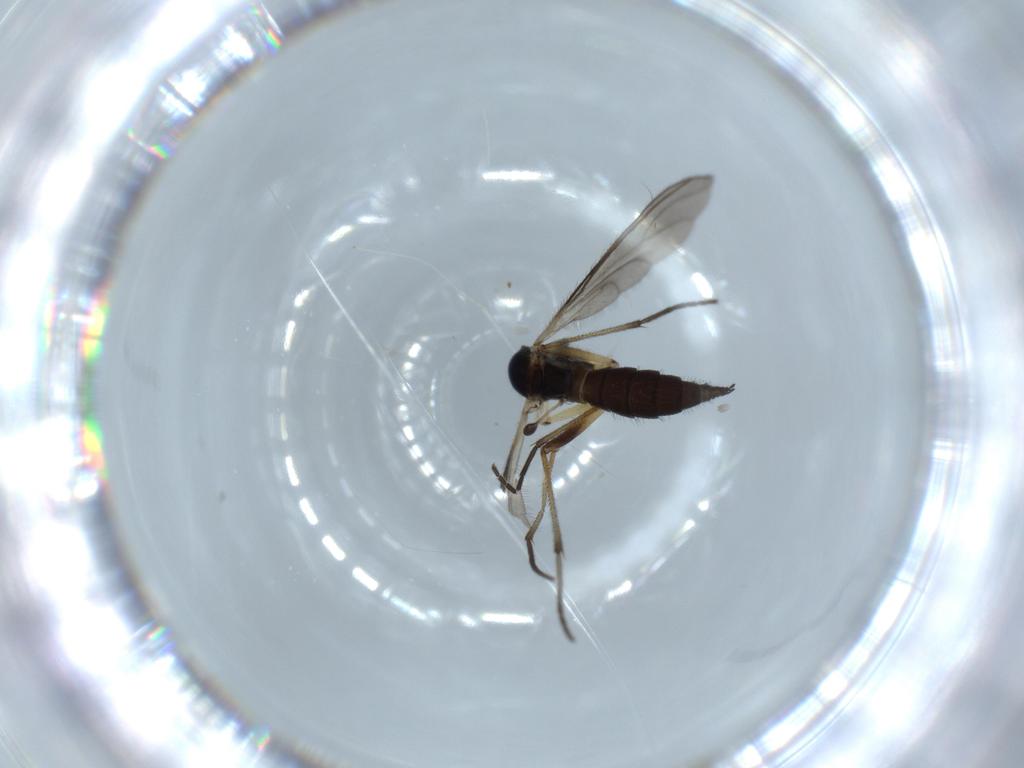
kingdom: Animalia
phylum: Arthropoda
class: Insecta
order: Diptera
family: Sciaridae
